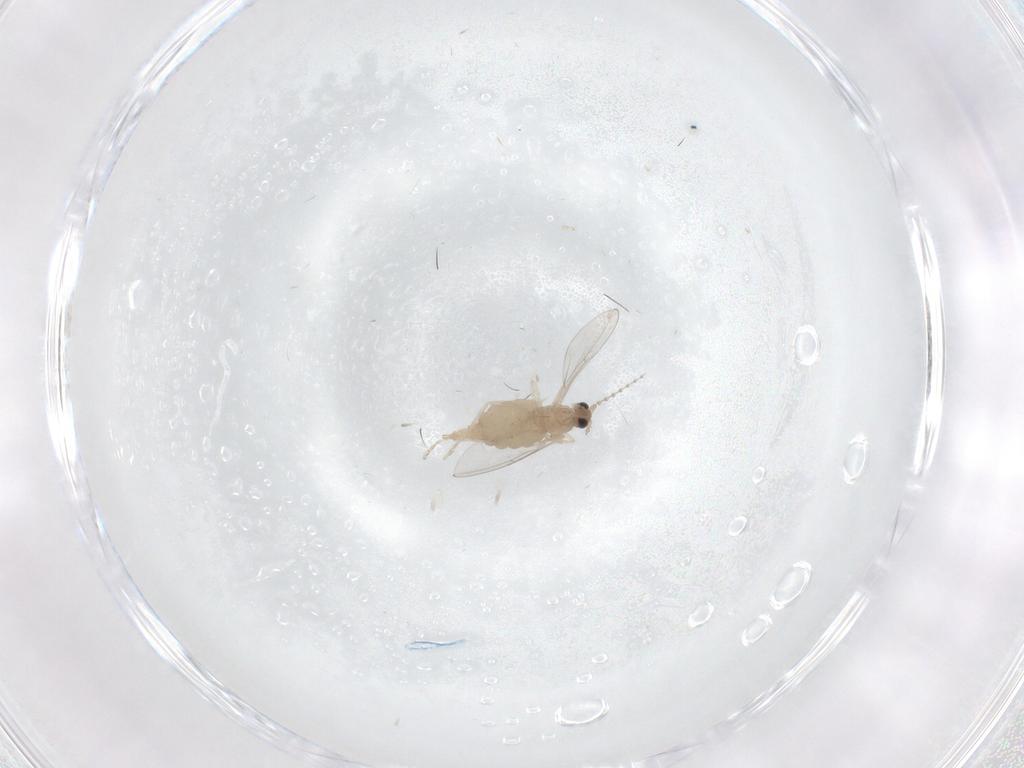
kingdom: Animalia
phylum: Arthropoda
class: Insecta
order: Diptera
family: Cecidomyiidae
